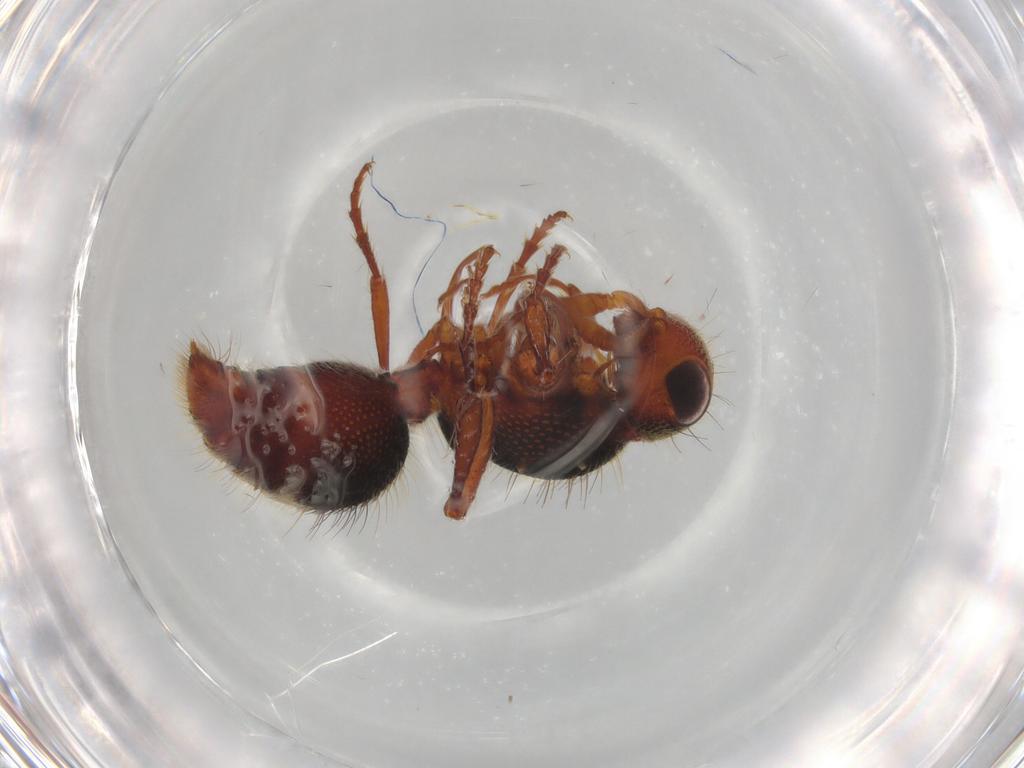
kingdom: Animalia
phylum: Arthropoda
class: Insecta
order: Hymenoptera
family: Mutillidae
